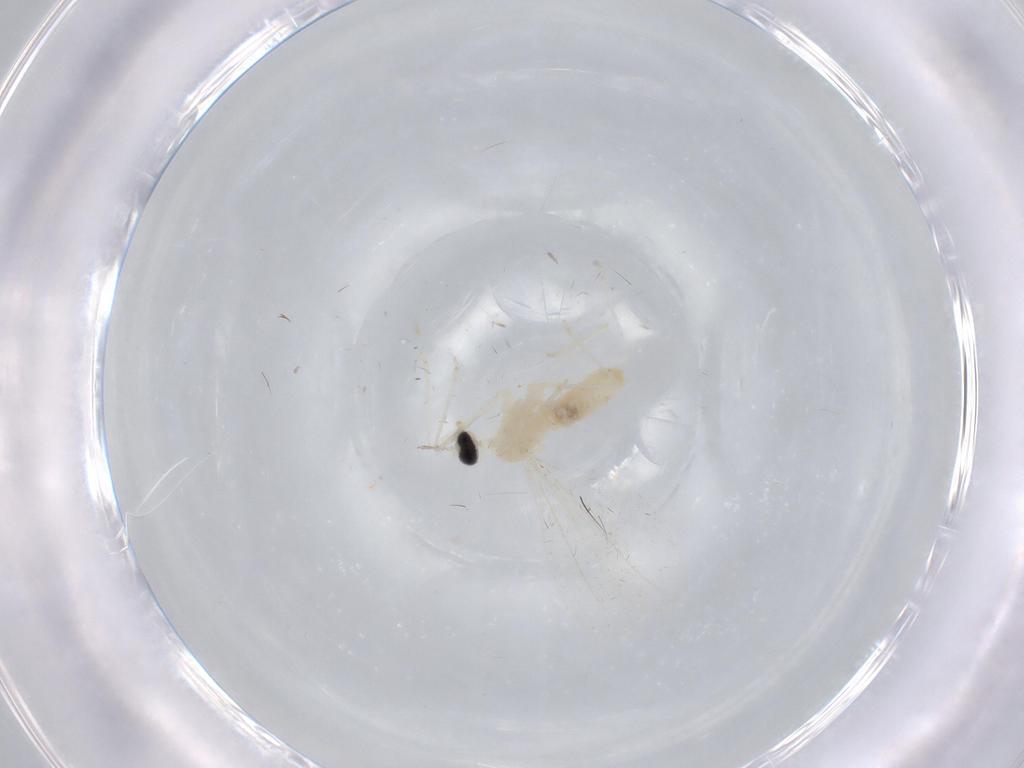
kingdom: Animalia
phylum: Arthropoda
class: Insecta
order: Diptera
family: Cecidomyiidae
